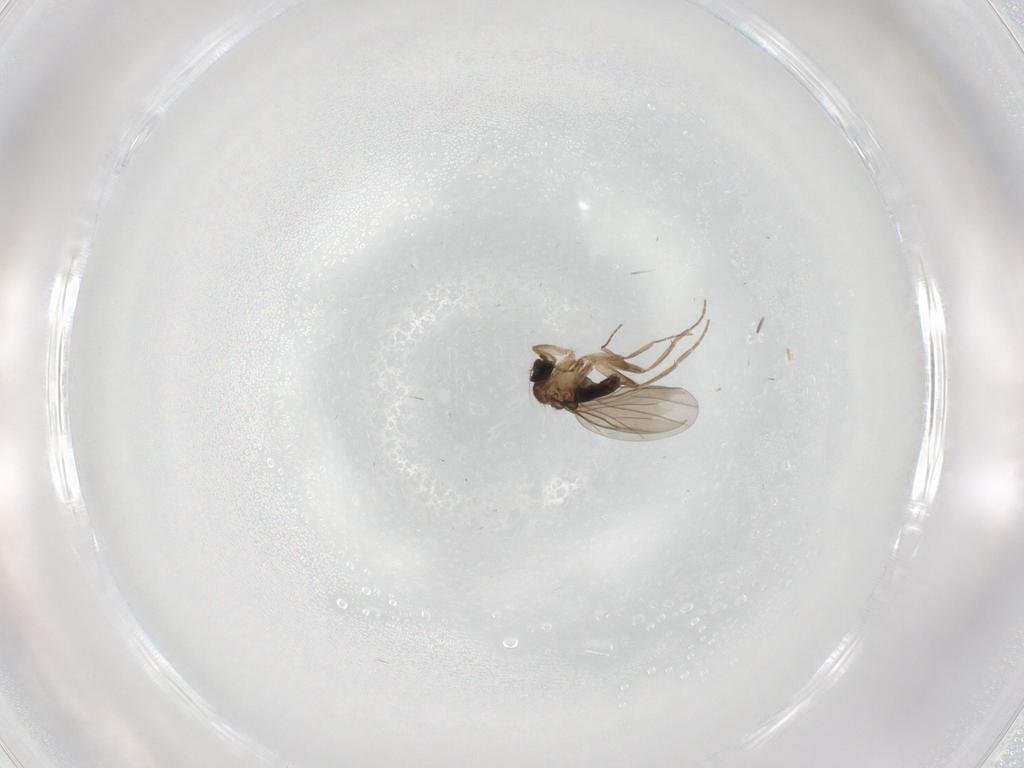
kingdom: Animalia
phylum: Arthropoda
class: Insecta
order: Diptera
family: Phoridae
